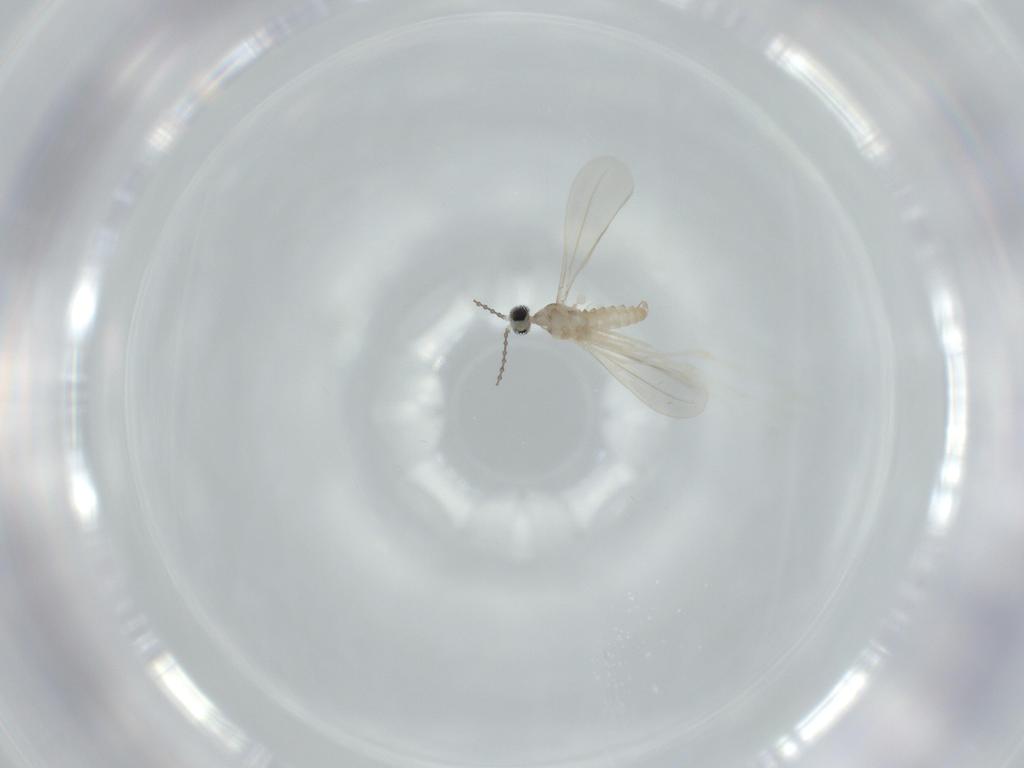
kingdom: Animalia
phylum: Arthropoda
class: Insecta
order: Diptera
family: Cecidomyiidae
